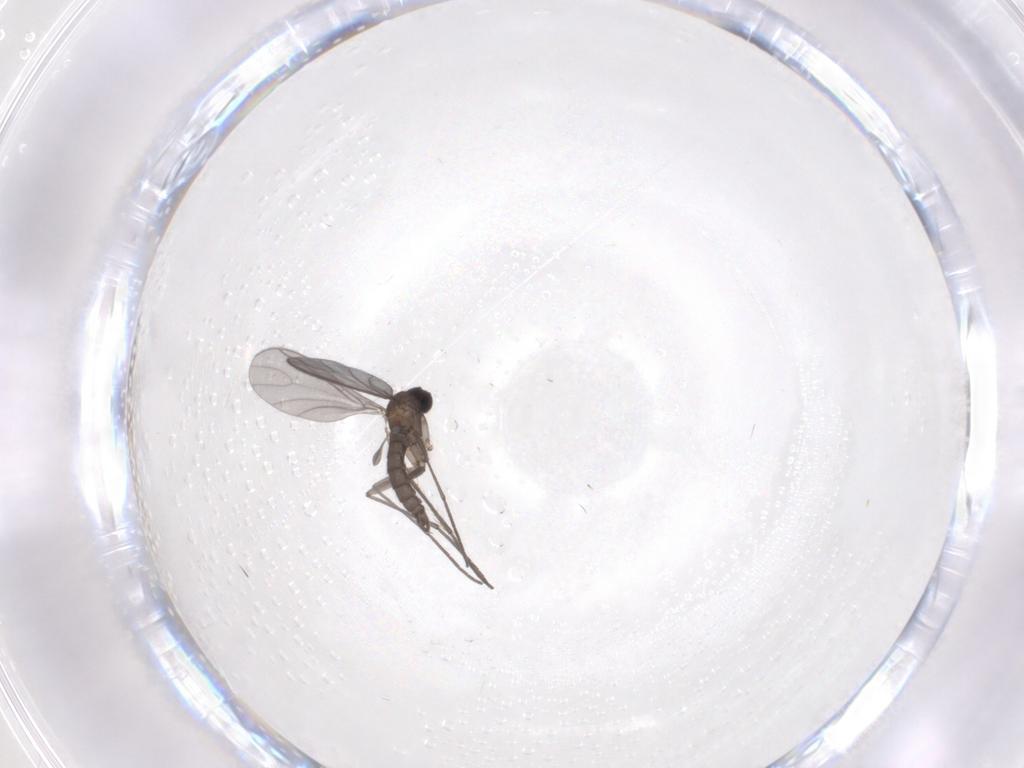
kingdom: Animalia
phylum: Arthropoda
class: Insecta
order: Diptera
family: Sciaridae
